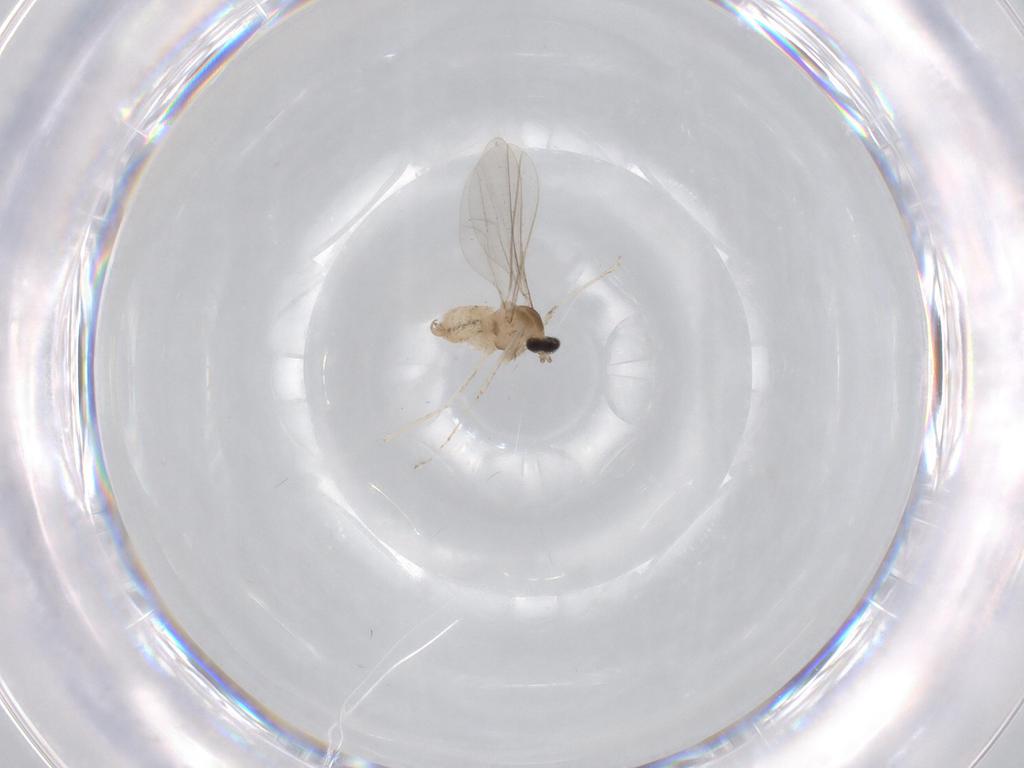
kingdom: Animalia
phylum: Arthropoda
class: Insecta
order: Diptera
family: Cecidomyiidae
